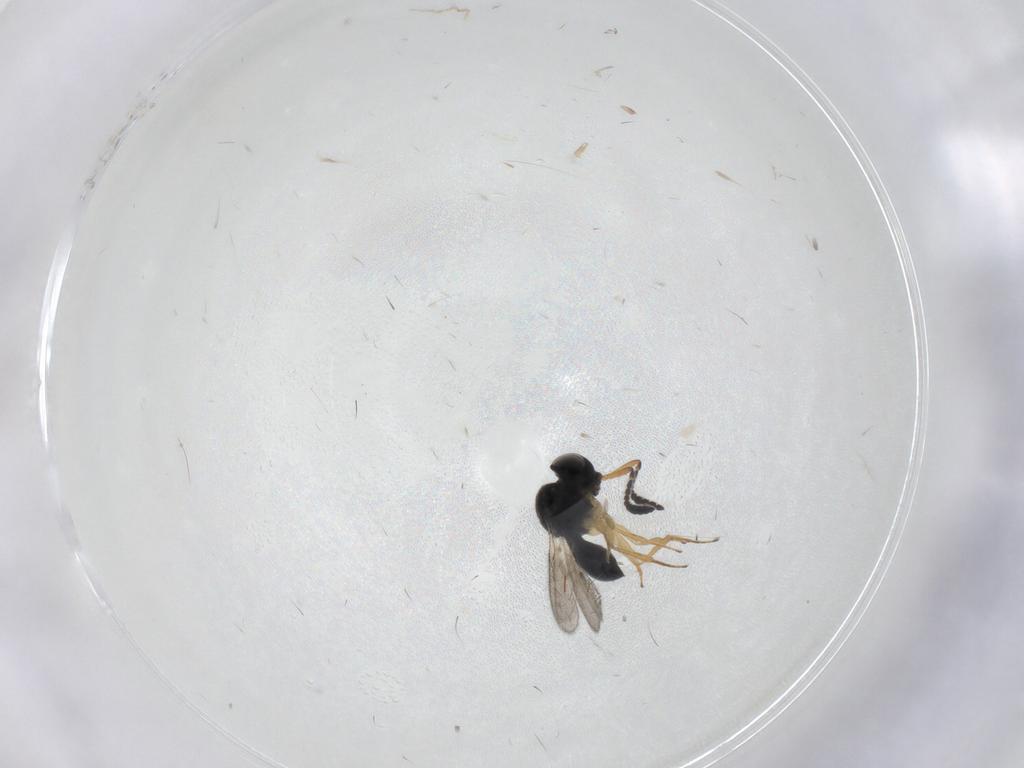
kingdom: Animalia
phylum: Arthropoda
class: Insecta
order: Hymenoptera
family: Scelionidae
